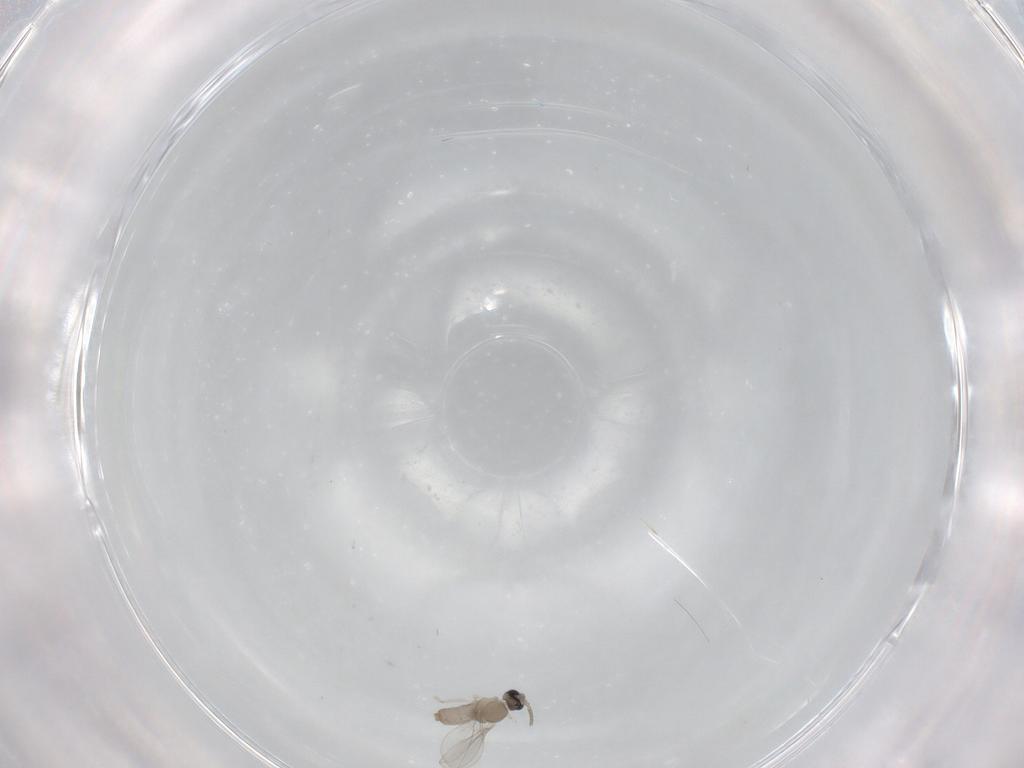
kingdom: Animalia
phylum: Arthropoda
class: Insecta
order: Diptera
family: Cecidomyiidae
